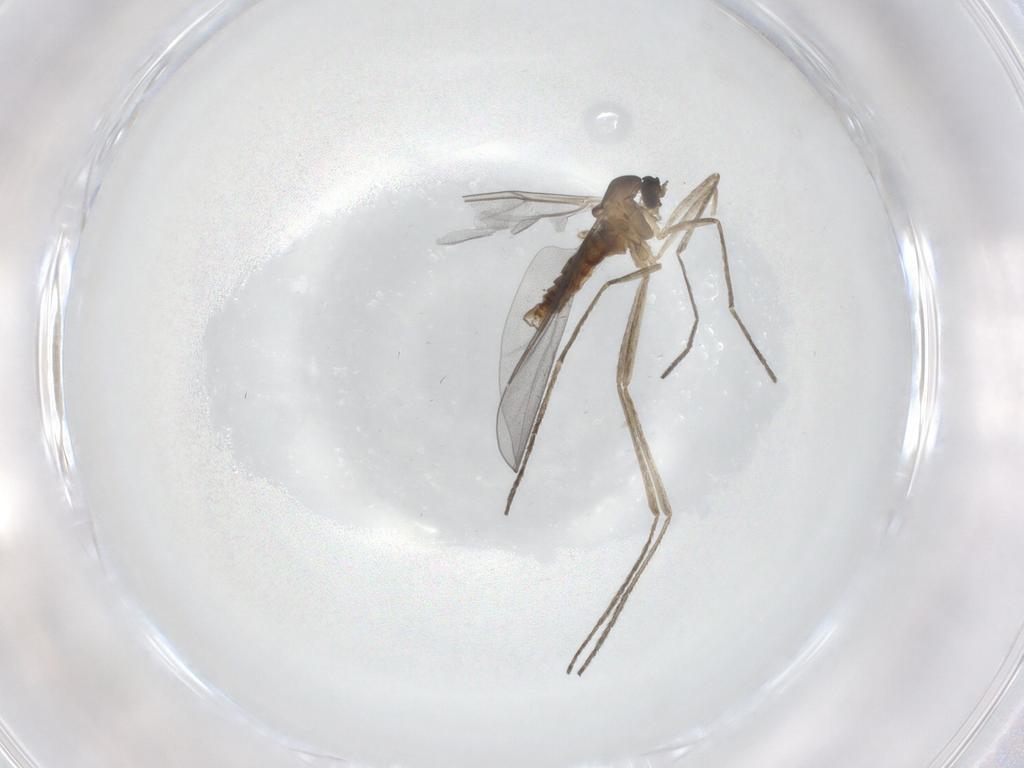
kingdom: Animalia
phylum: Arthropoda
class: Insecta
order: Diptera
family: Cecidomyiidae
